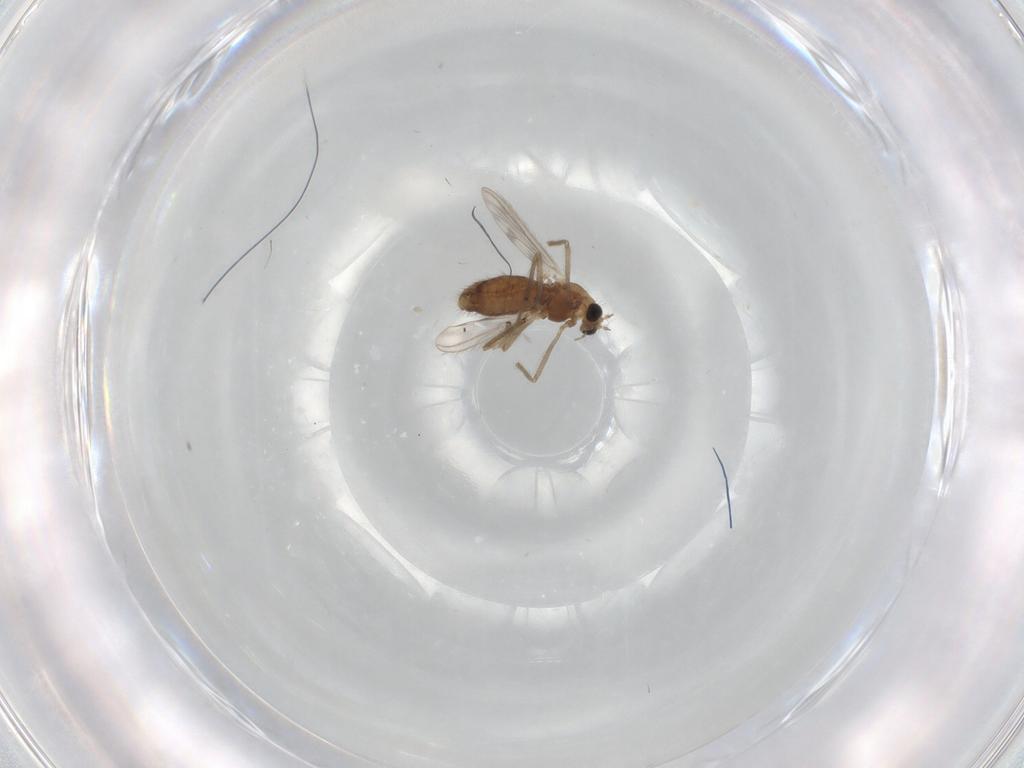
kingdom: Animalia
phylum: Arthropoda
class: Insecta
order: Diptera
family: Chironomidae
